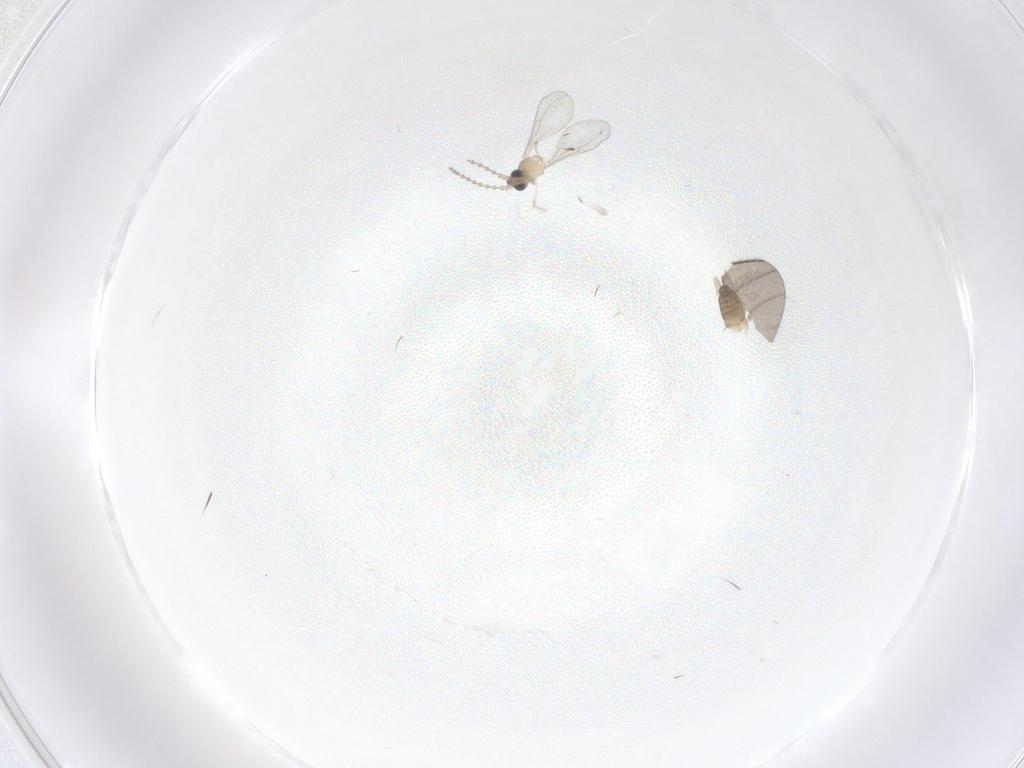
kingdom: Animalia
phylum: Arthropoda
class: Insecta
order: Diptera
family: Cecidomyiidae
